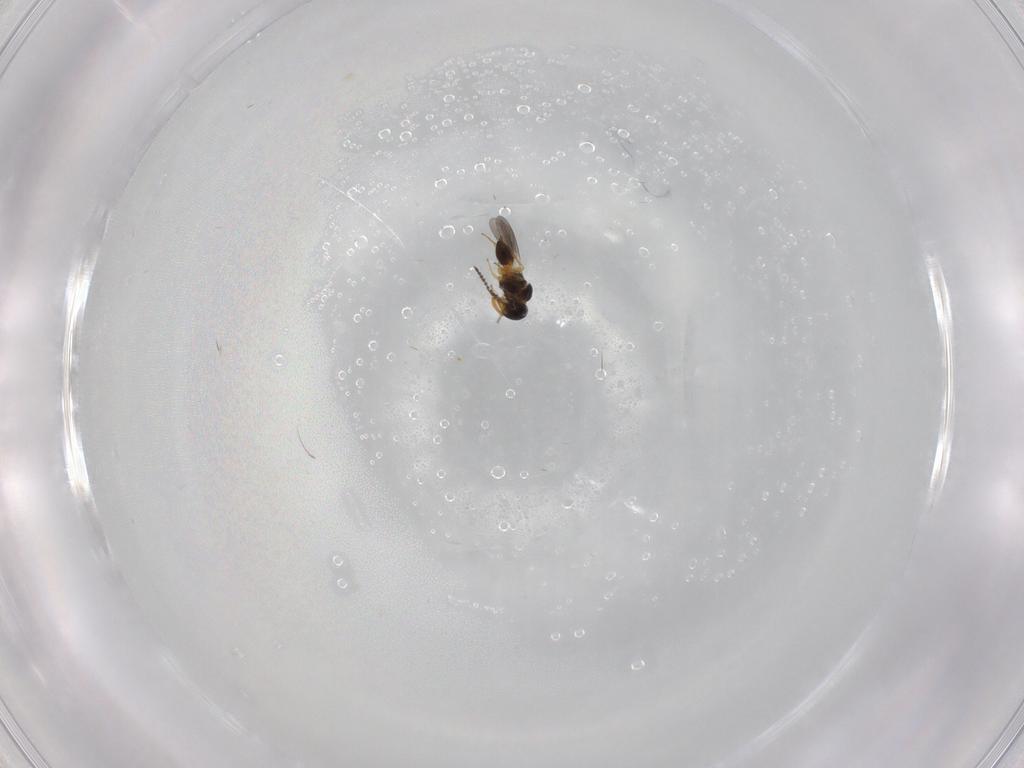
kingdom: Animalia
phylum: Arthropoda
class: Insecta
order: Hymenoptera
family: Platygastridae
